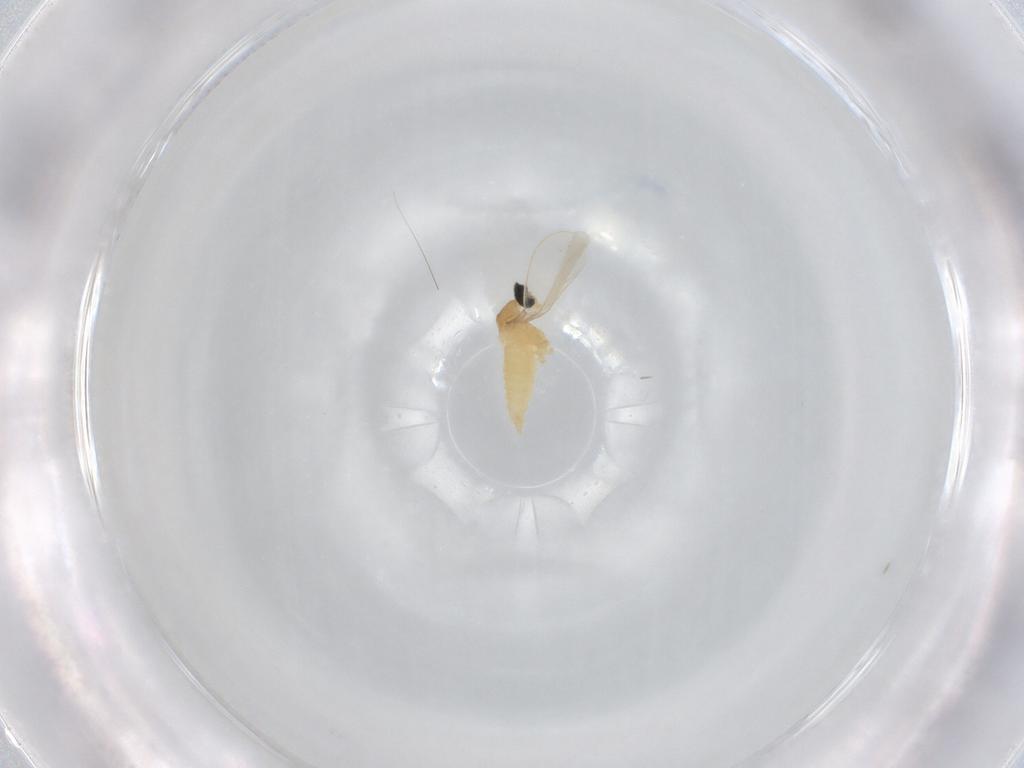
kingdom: Animalia
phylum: Arthropoda
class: Insecta
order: Diptera
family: Cecidomyiidae
